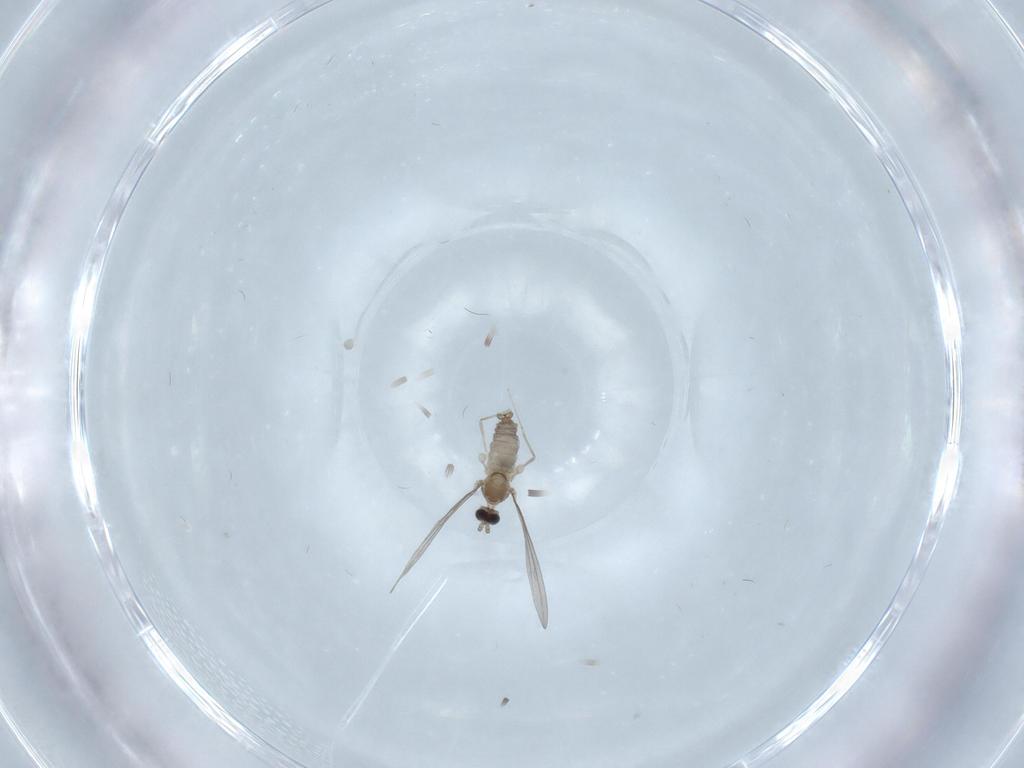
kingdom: Animalia
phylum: Arthropoda
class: Insecta
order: Diptera
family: Cecidomyiidae
